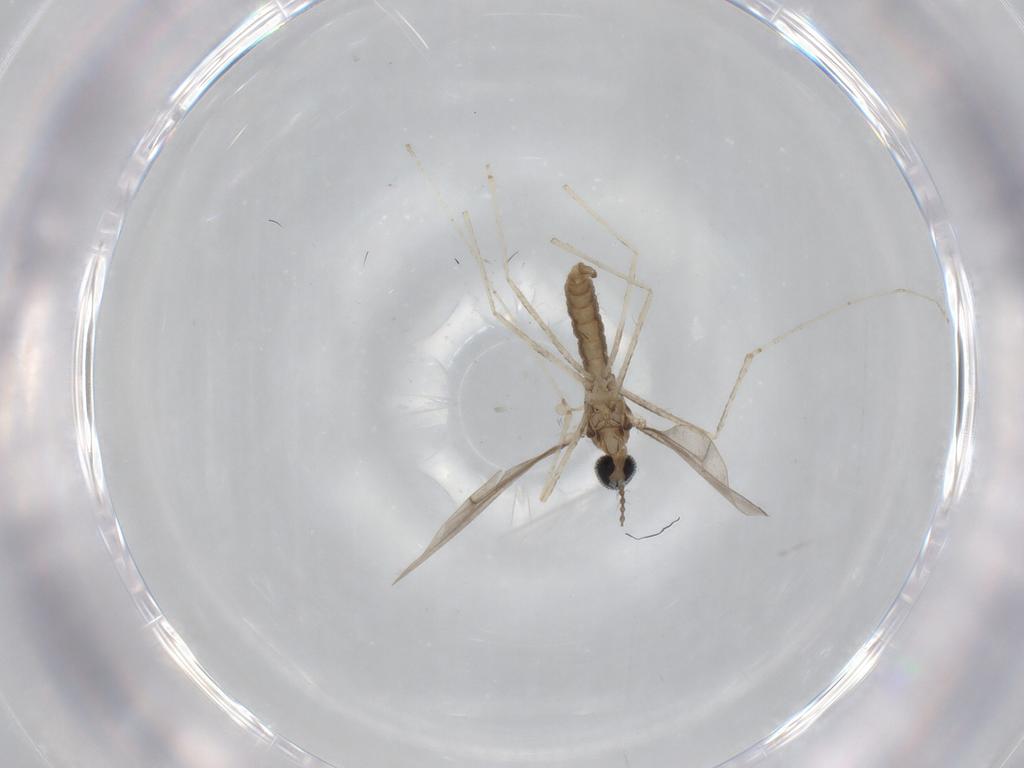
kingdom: Animalia
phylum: Arthropoda
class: Insecta
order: Diptera
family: Cecidomyiidae
